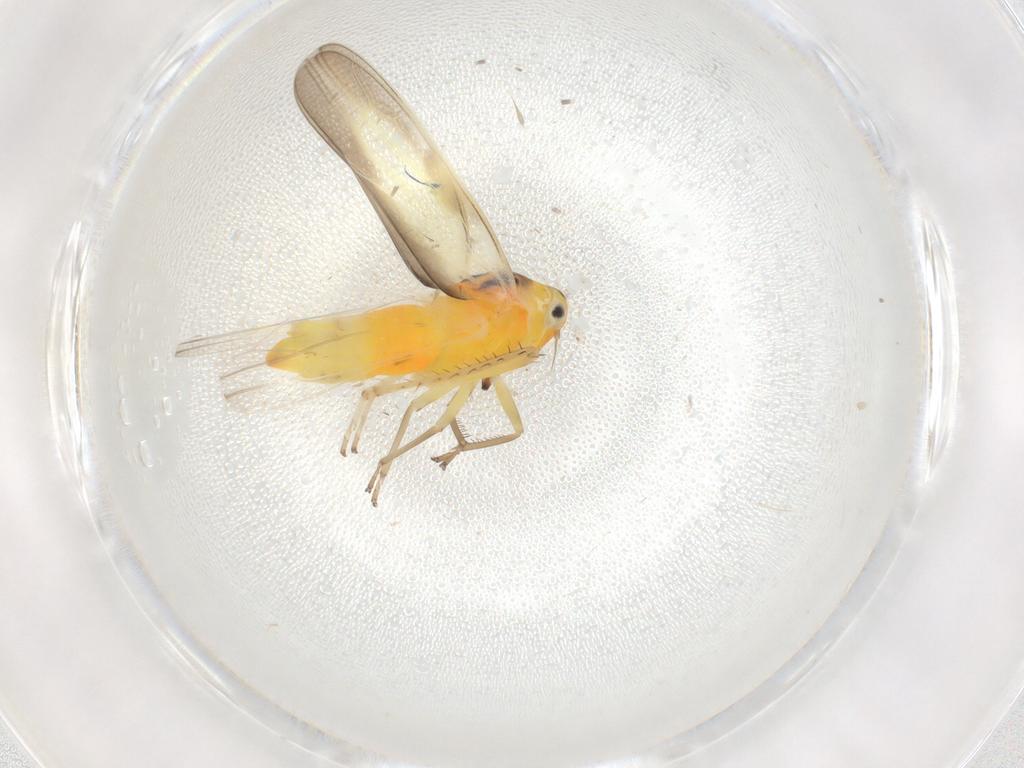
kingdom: Animalia
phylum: Arthropoda
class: Insecta
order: Hemiptera
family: Cicadellidae
